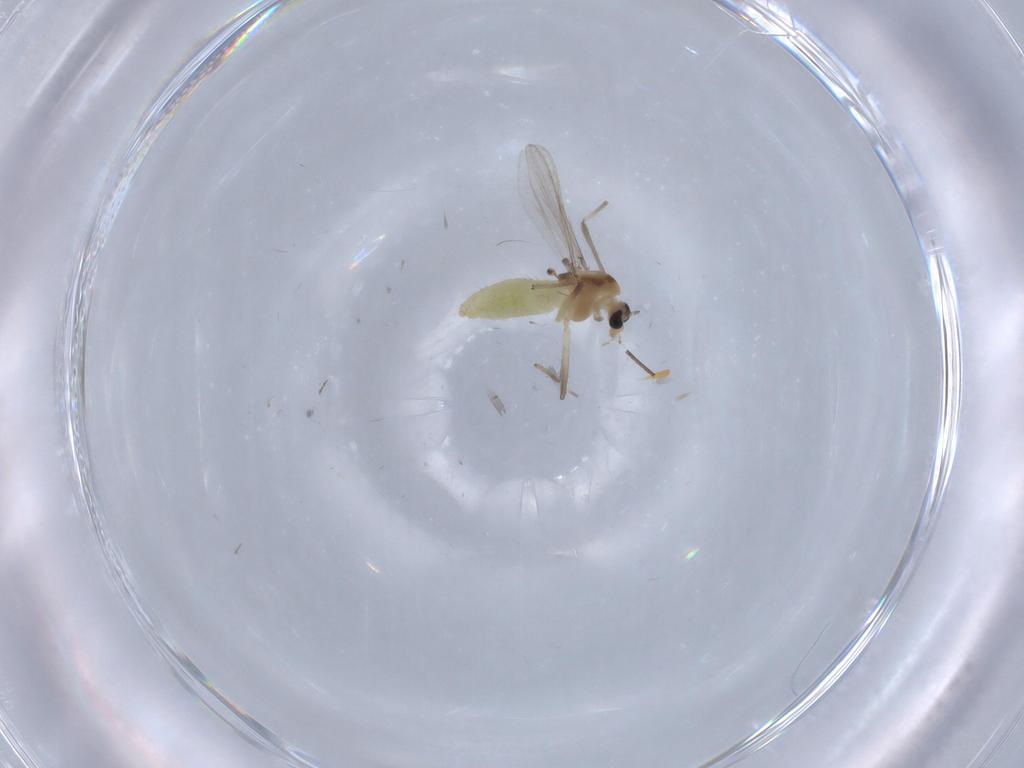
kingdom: Animalia
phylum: Arthropoda
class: Insecta
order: Diptera
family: Chironomidae
